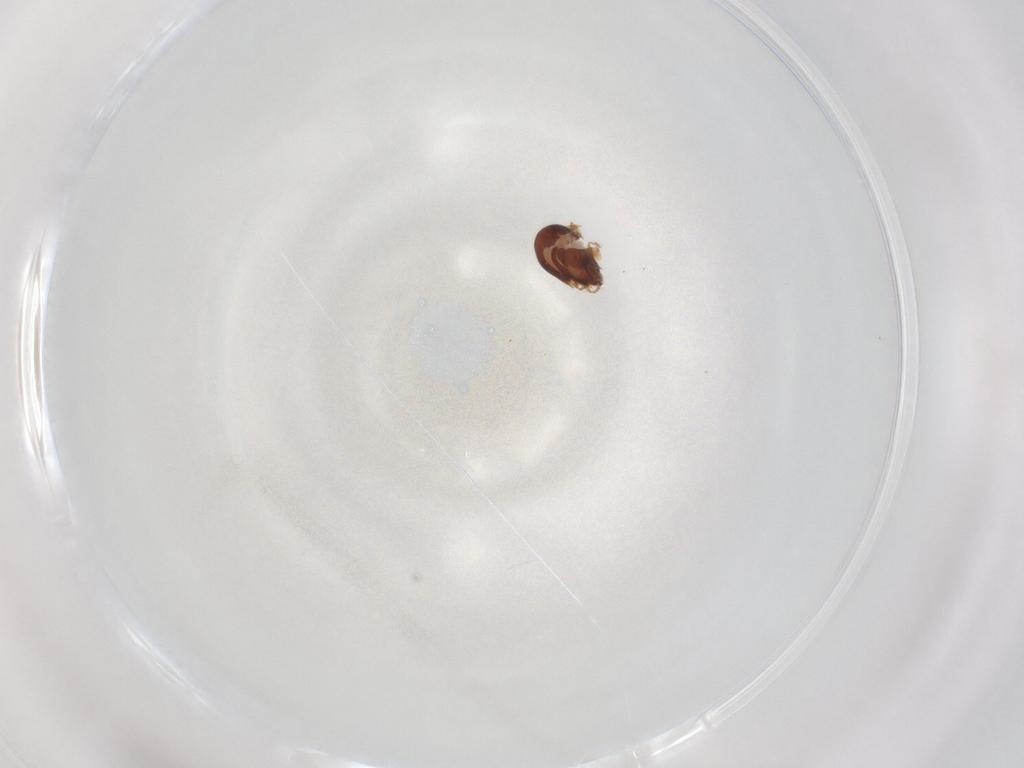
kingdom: Animalia
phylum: Arthropoda
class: Arachnida
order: Sarcoptiformes
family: Humerobatidae
